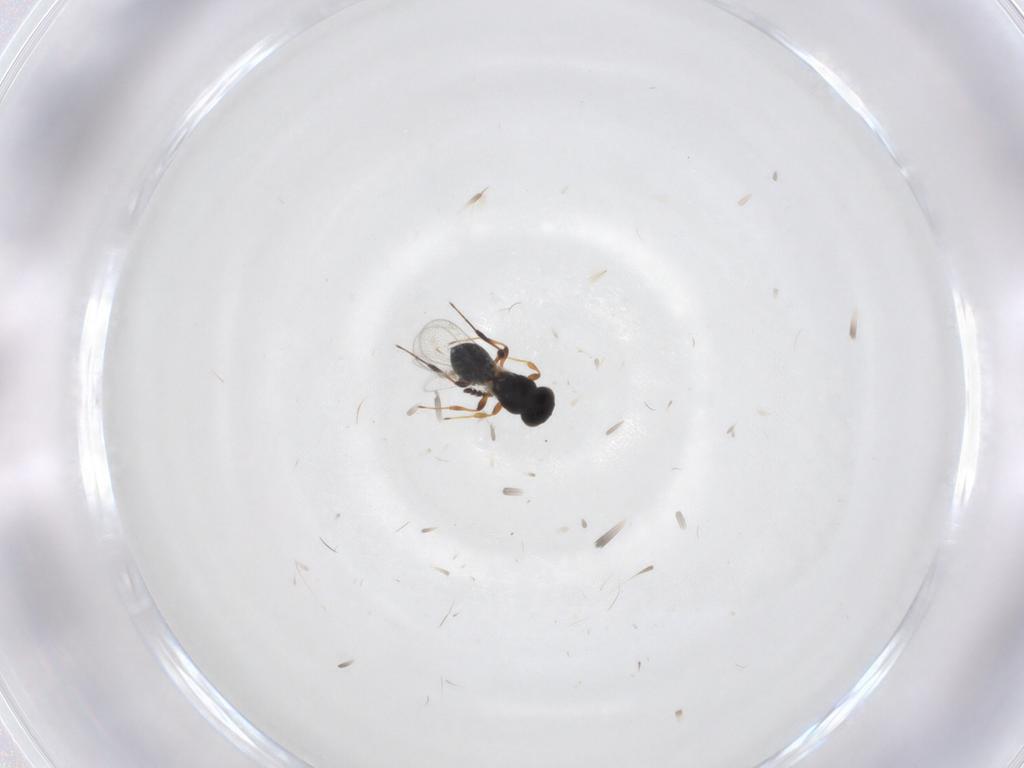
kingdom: Animalia
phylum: Arthropoda
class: Insecta
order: Hymenoptera
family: Platygastridae
